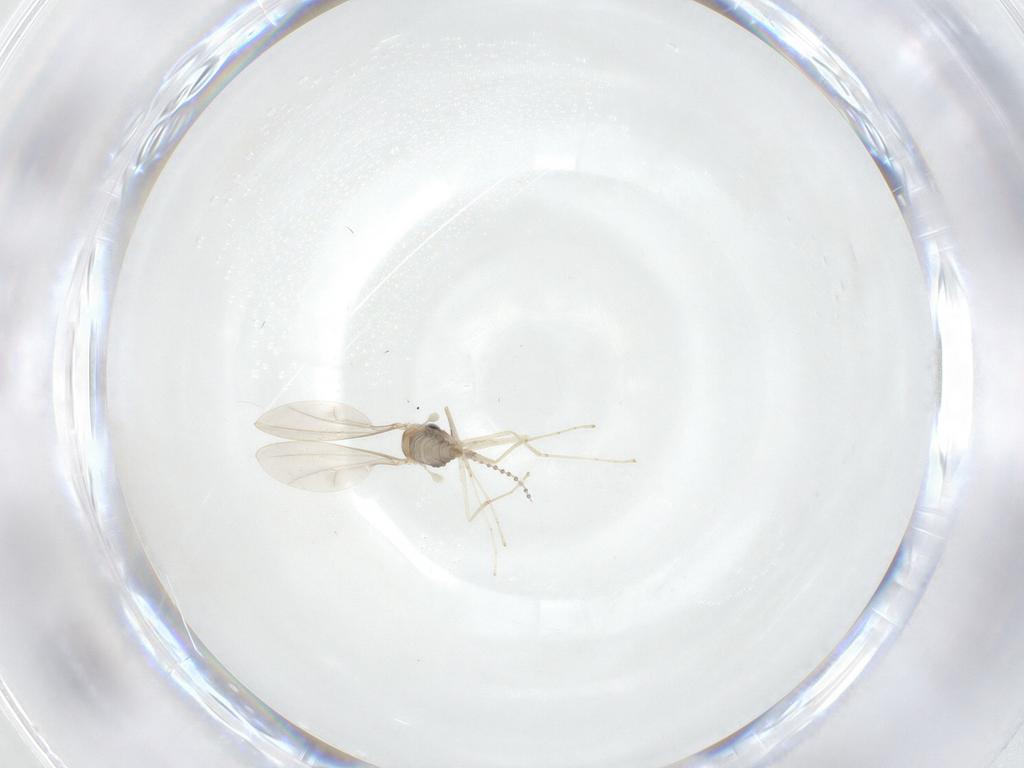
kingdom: Animalia
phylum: Arthropoda
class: Insecta
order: Diptera
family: Cecidomyiidae
